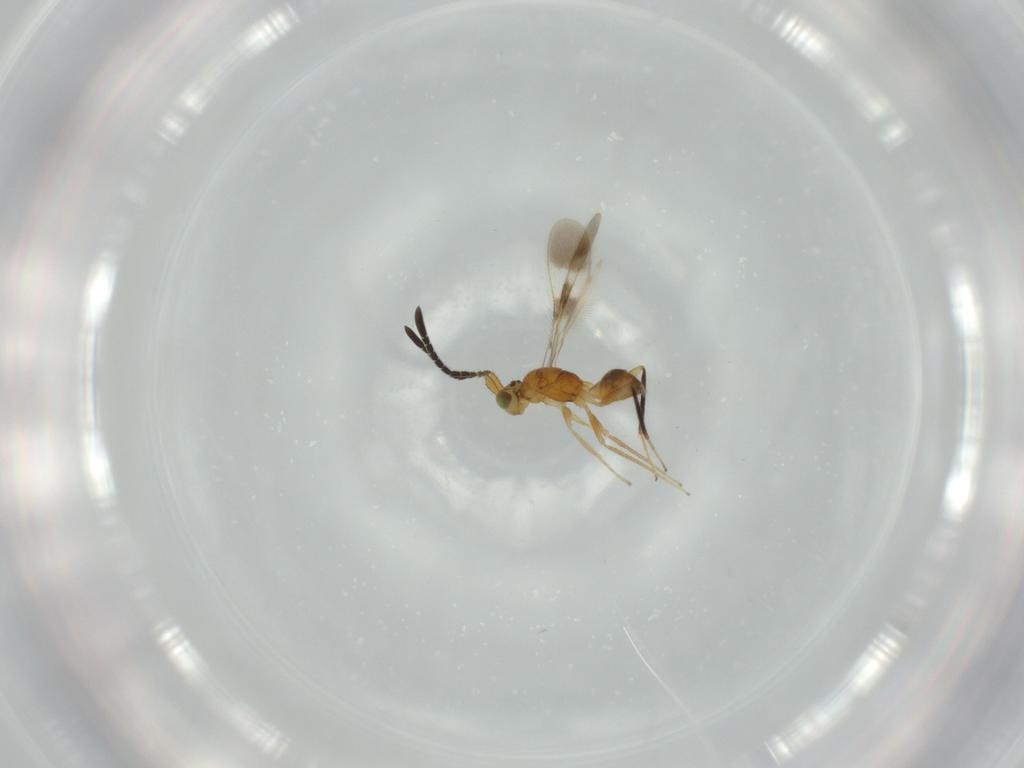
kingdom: Animalia
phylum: Arthropoda
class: Insecta
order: Hymenoptera
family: Mymaridae
